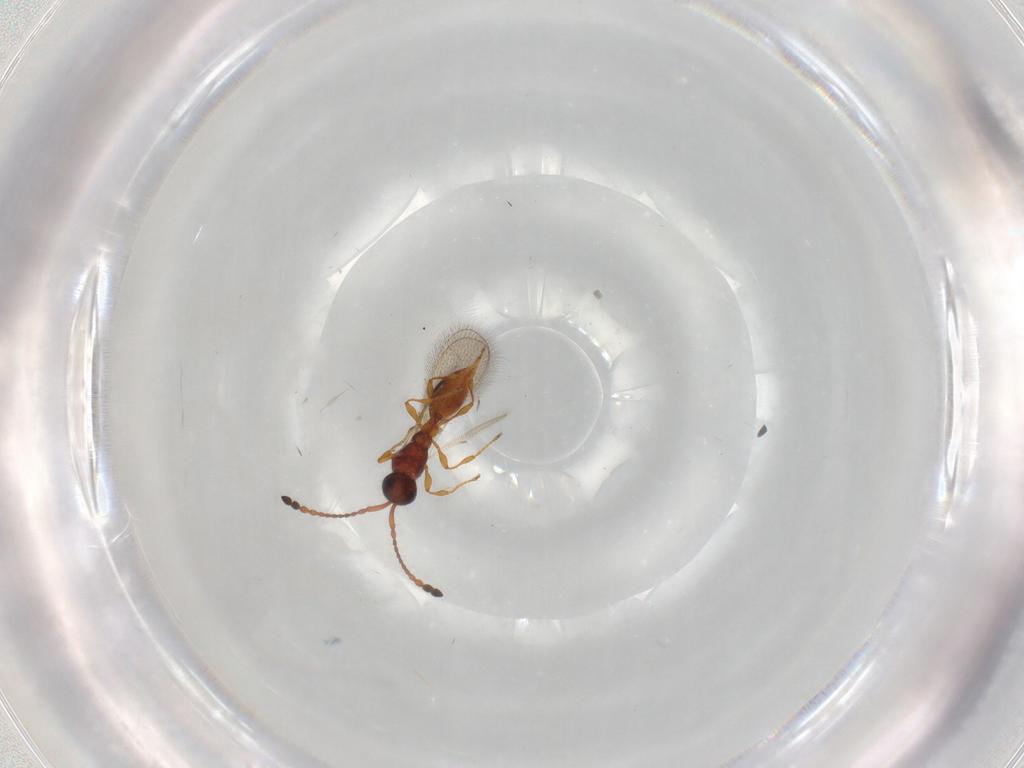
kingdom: Animalia
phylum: Arthropoda
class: Insecta
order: Hymenoptera
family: Diapriidae
